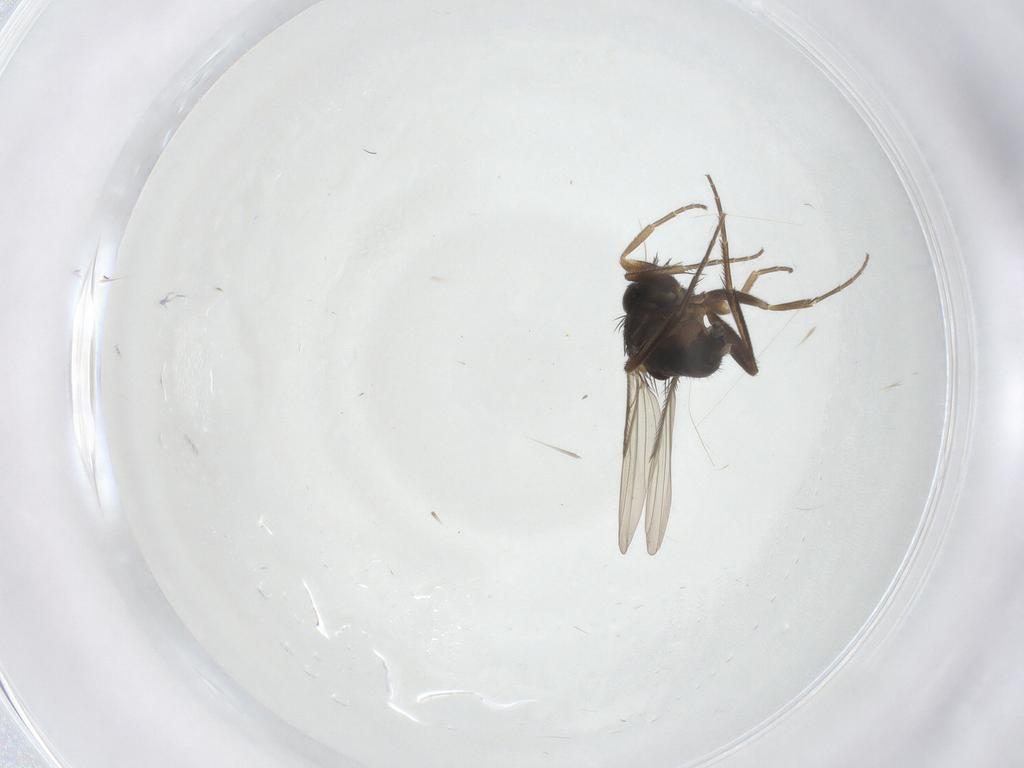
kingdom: Animalia
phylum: Arthropoda
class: Insecta
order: Diptera
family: Phoridae
